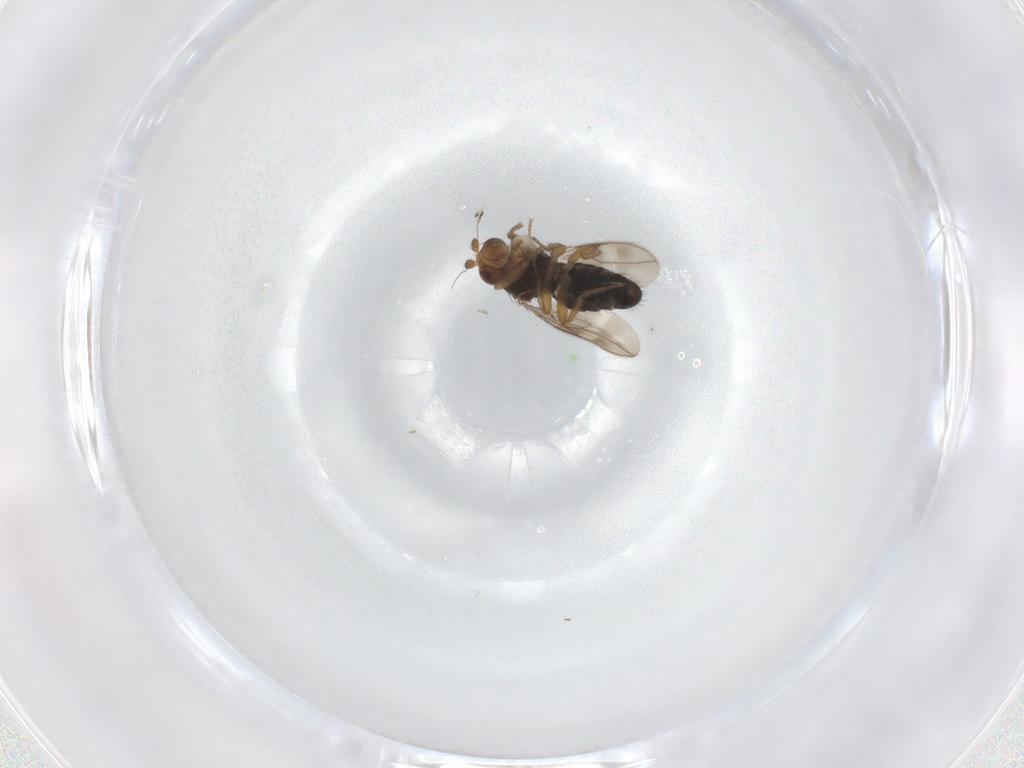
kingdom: Animalia
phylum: Arthropoda
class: Insecta
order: Diptera
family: Sphaeroceridae
